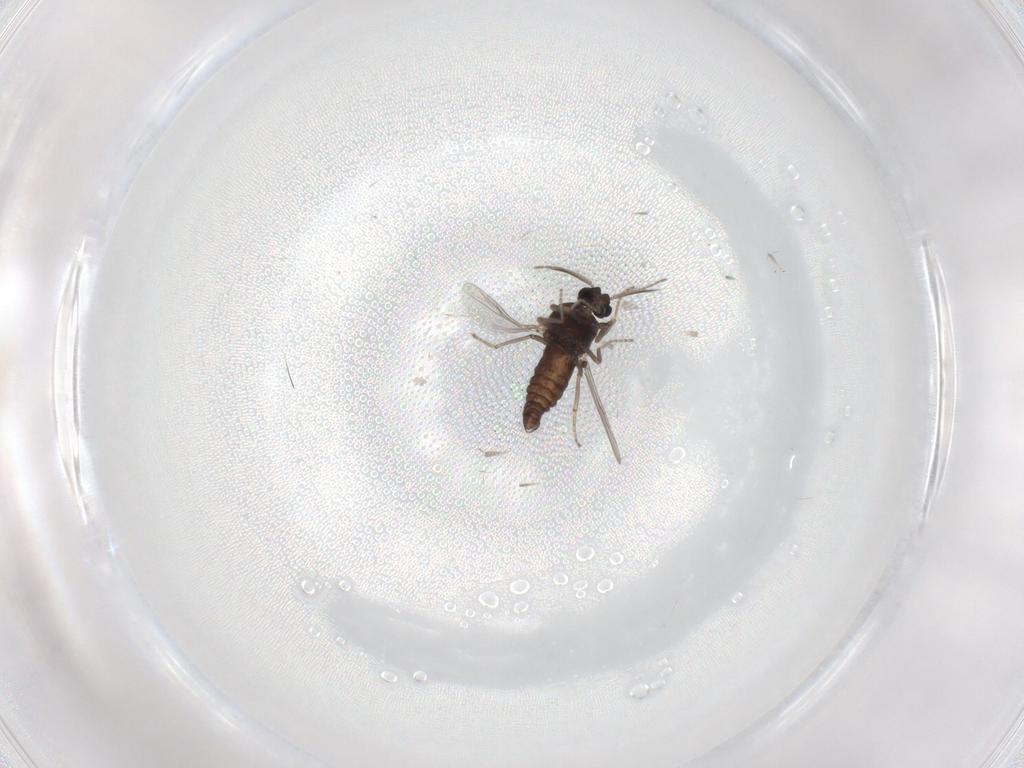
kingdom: Animalia
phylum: Arthropoda
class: Insecta
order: Diptera
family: Ceratopogonidae
